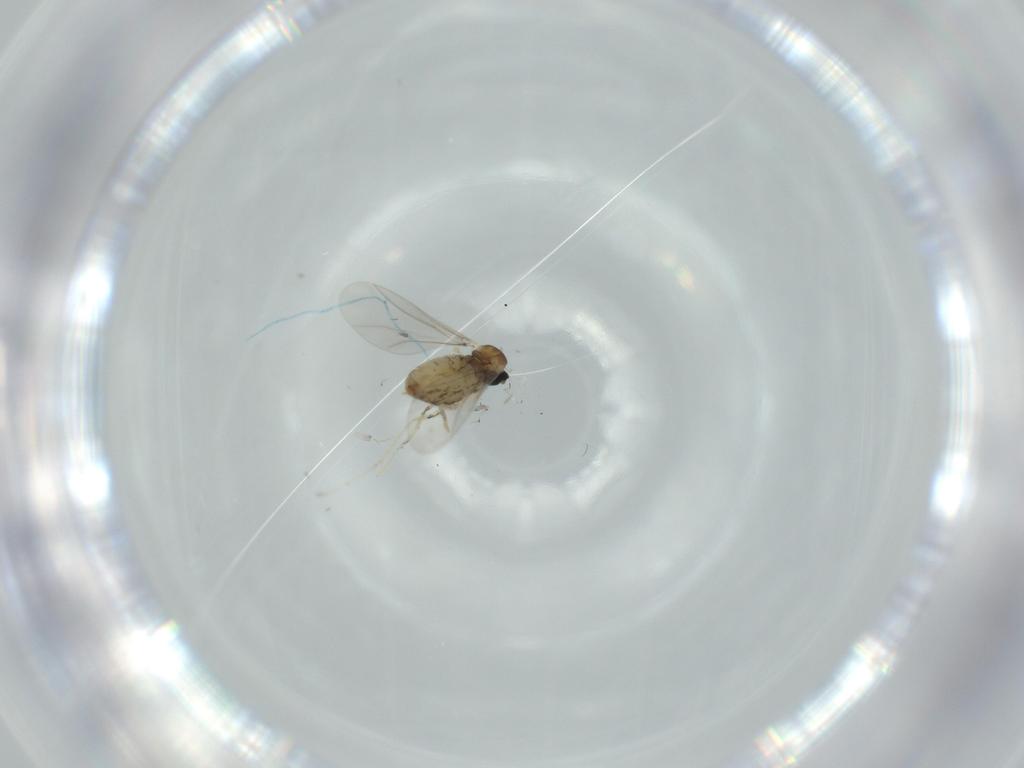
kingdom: Animalia
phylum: Arthropoda
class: Insecta
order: Diptera
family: Cecidomyiidae
